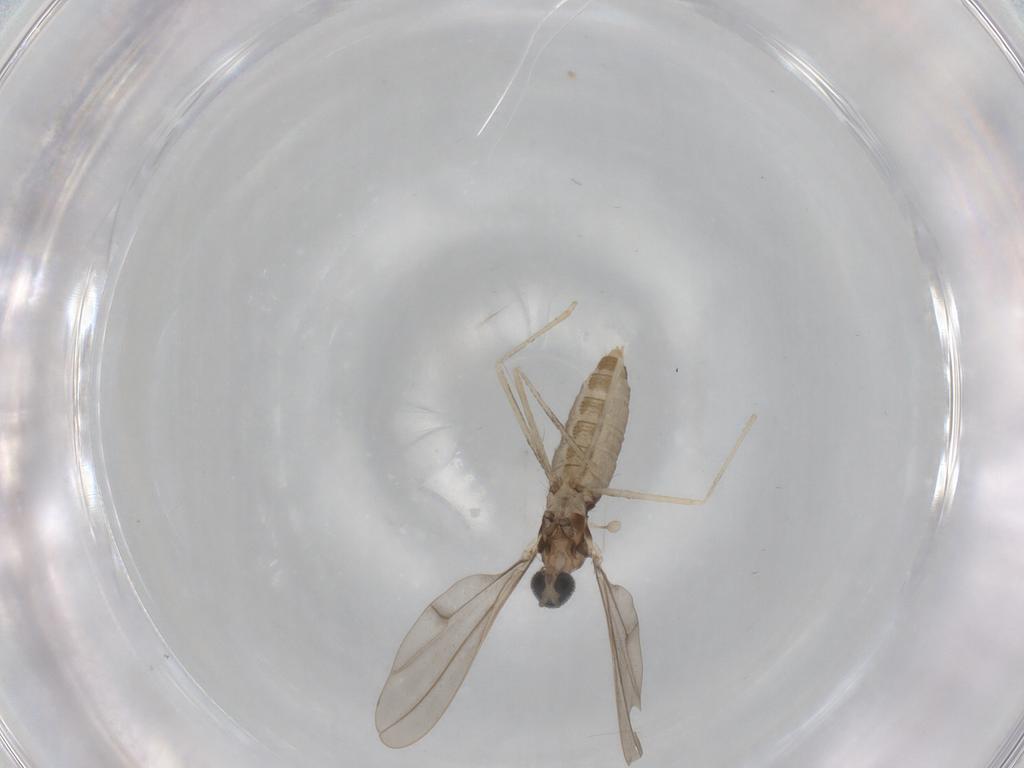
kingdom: Animalia
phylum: Arthropoda
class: Insecta
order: Diptera
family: Cecidomyiidae
